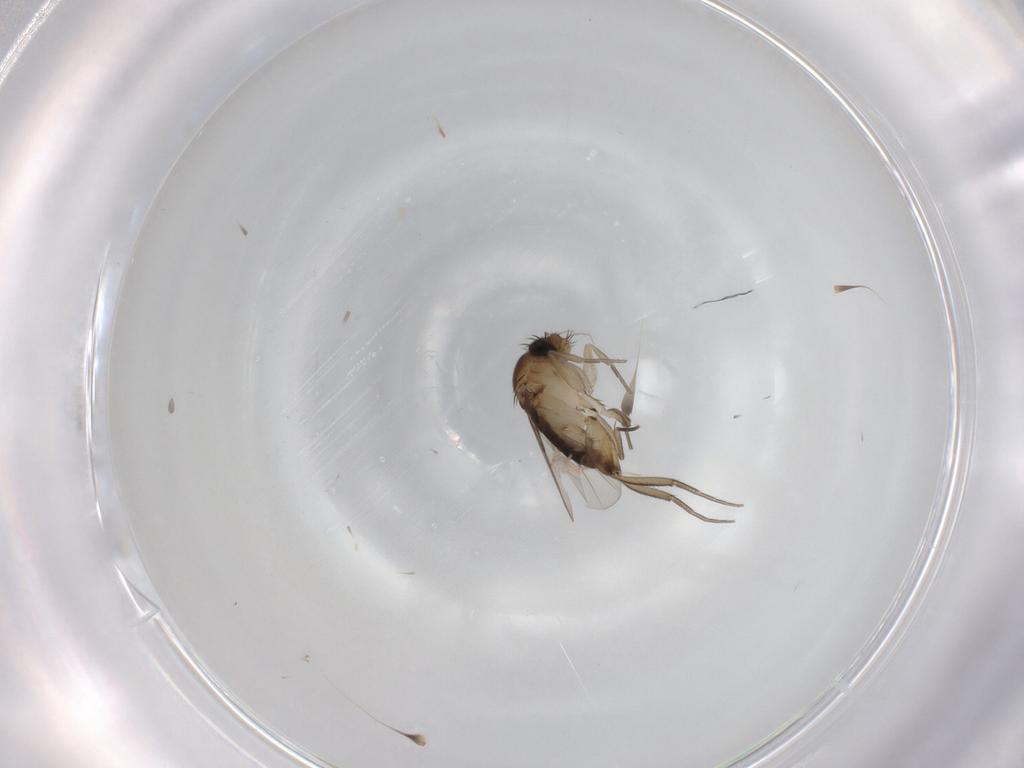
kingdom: Animalia
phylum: Arthropoda
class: Insecta
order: Diptera
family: Phoridae
